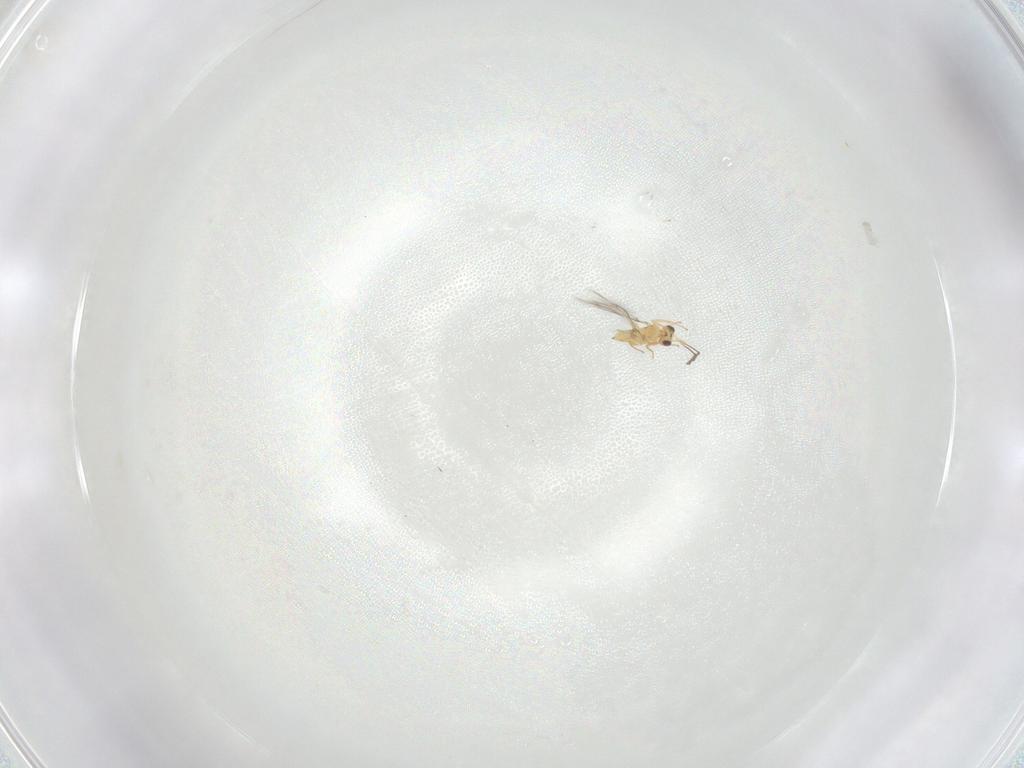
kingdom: Animalia
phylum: Arthropoda
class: Insecta
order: Hymenoptera
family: Mymaridae
